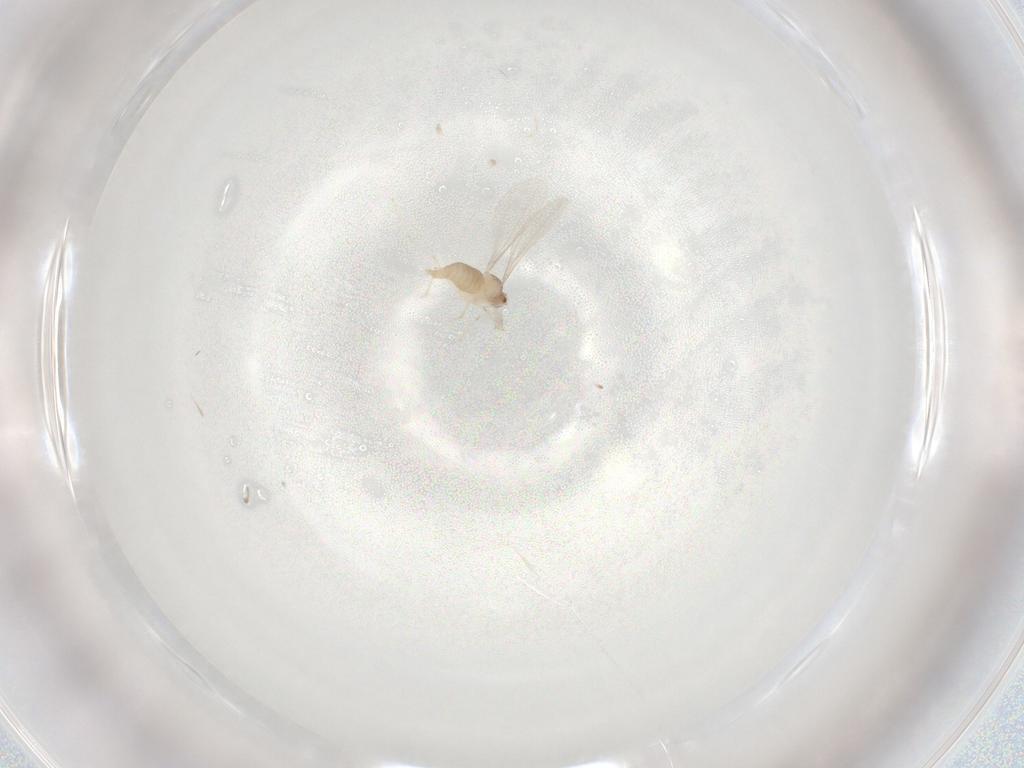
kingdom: Animalia
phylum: Arthropoda
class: Insecta
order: Diptera
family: Cecidomyiidae
